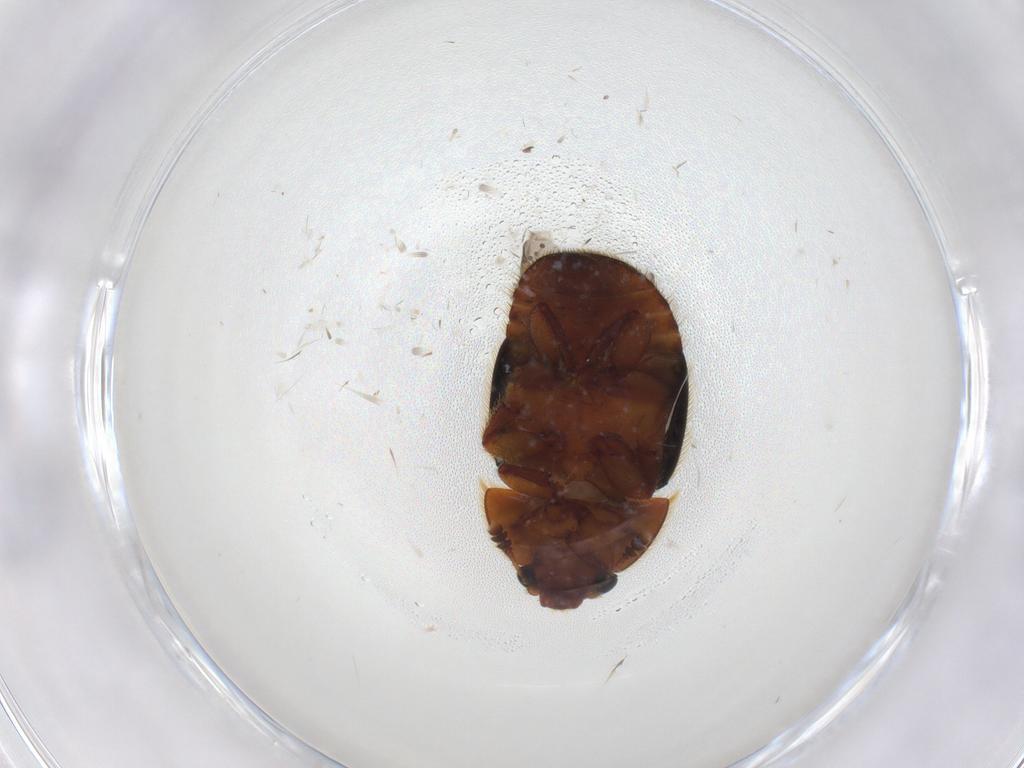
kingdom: Animalia
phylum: Arthropoda
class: Insecta
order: Coleoptera
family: Nitidulidae
